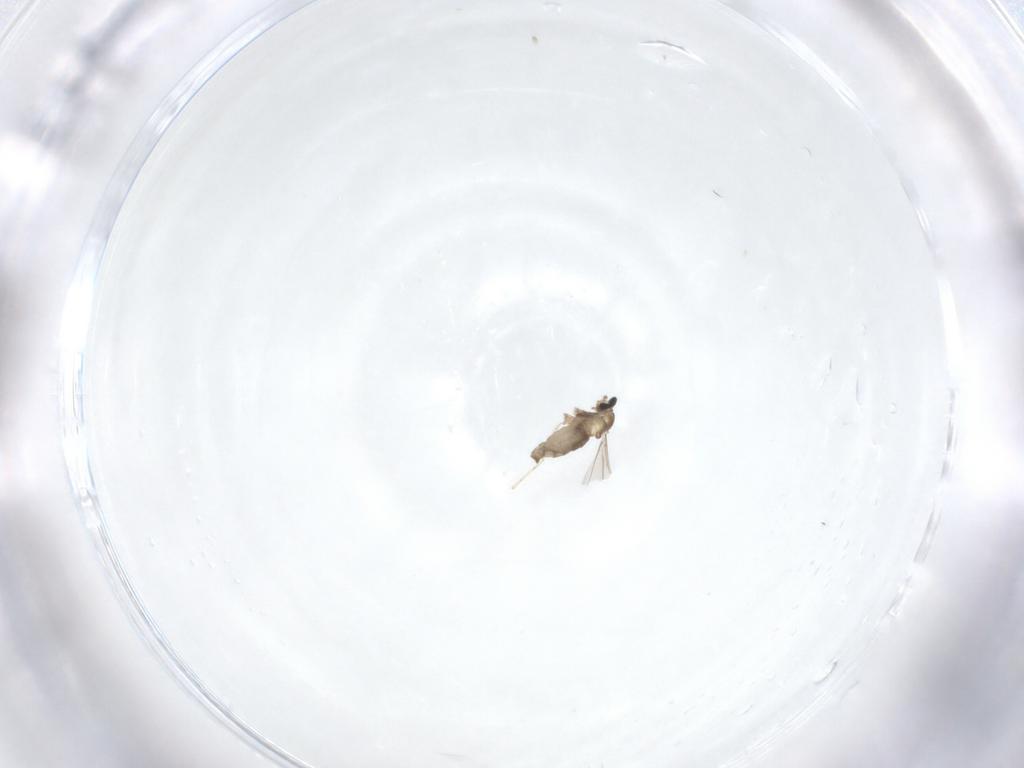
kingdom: Animalia
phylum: Arthropoda
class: Insecta
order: Diptera
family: Cecidomyiidae
